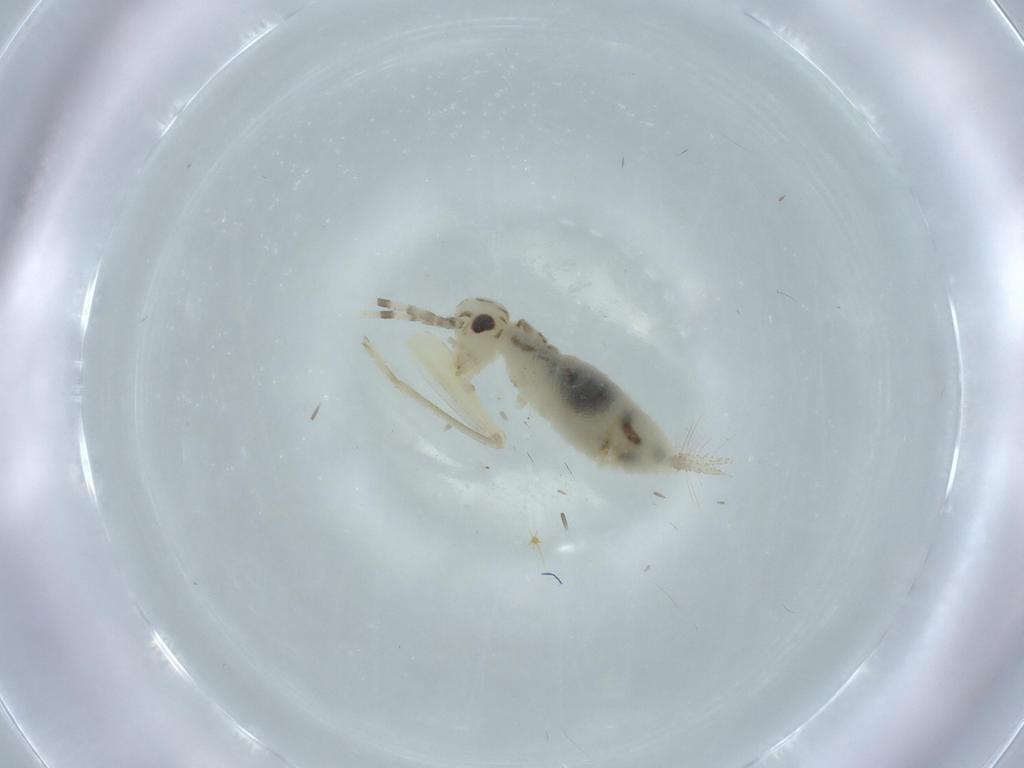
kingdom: Animalia
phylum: Arthropoda
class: Insecta
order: Orthoptera
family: Trigonidiidae
